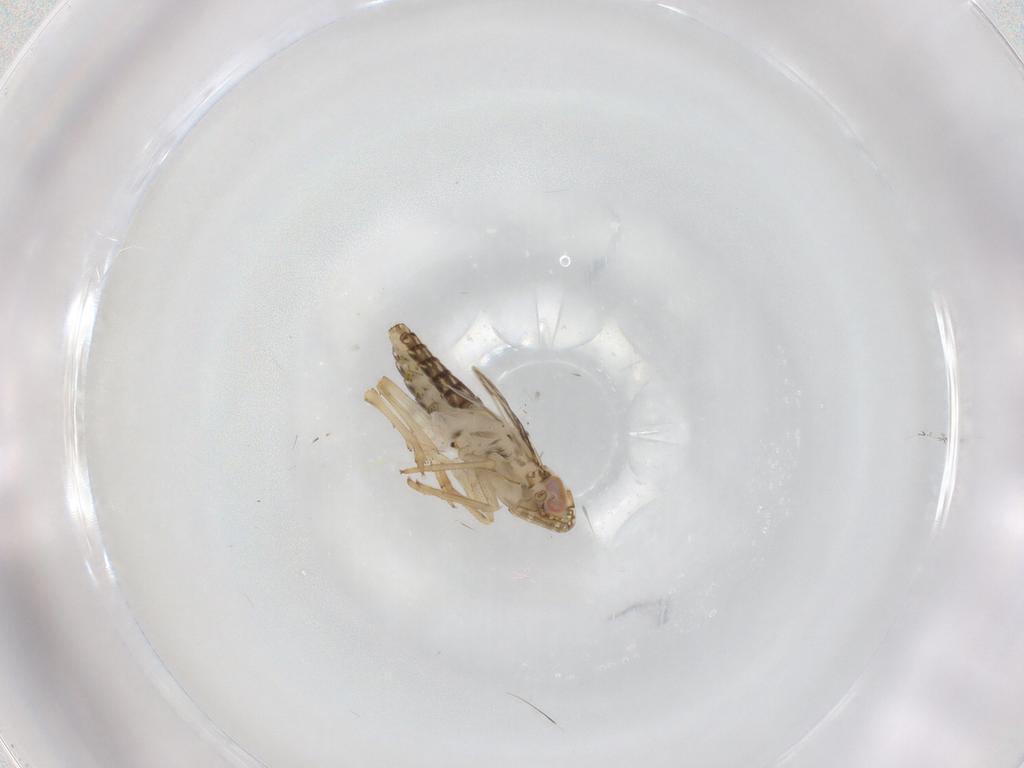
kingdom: Animalia
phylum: Arthropoda
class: Insecta
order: Hemiptera
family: Delphacidae
